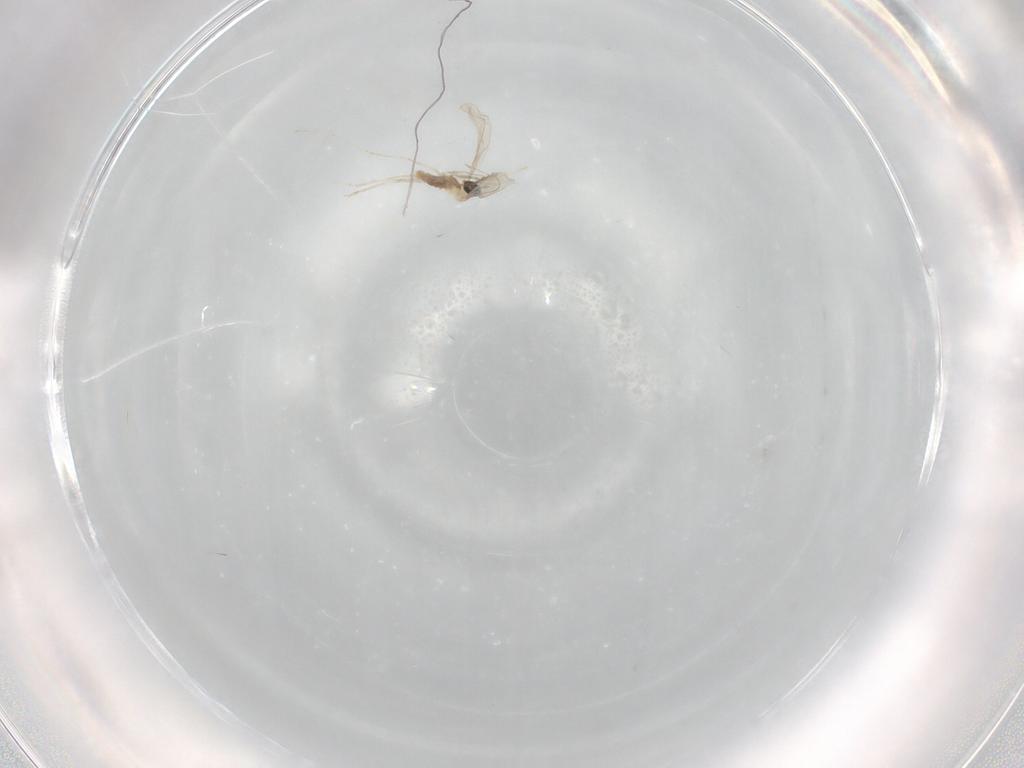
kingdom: Animalia
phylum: Arthropoda
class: Insecta
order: Diptera
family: Cecidomyiidae
